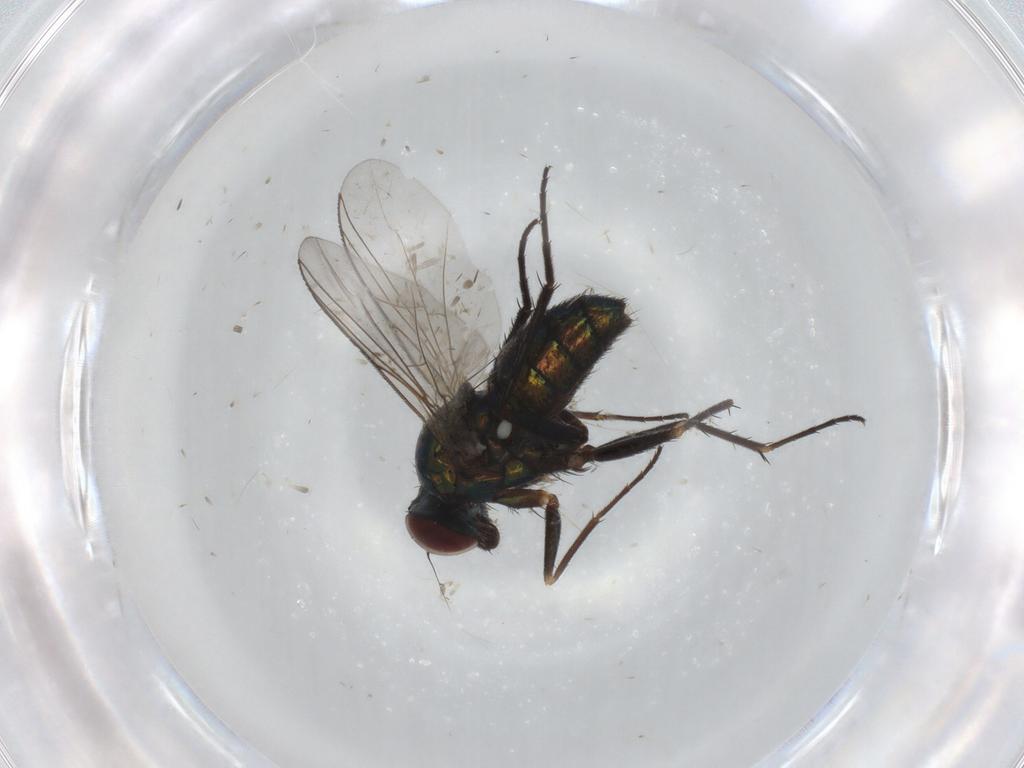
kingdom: Animalia
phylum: Arthropoda
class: Insecta
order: Diptera
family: Dolichopodidae
